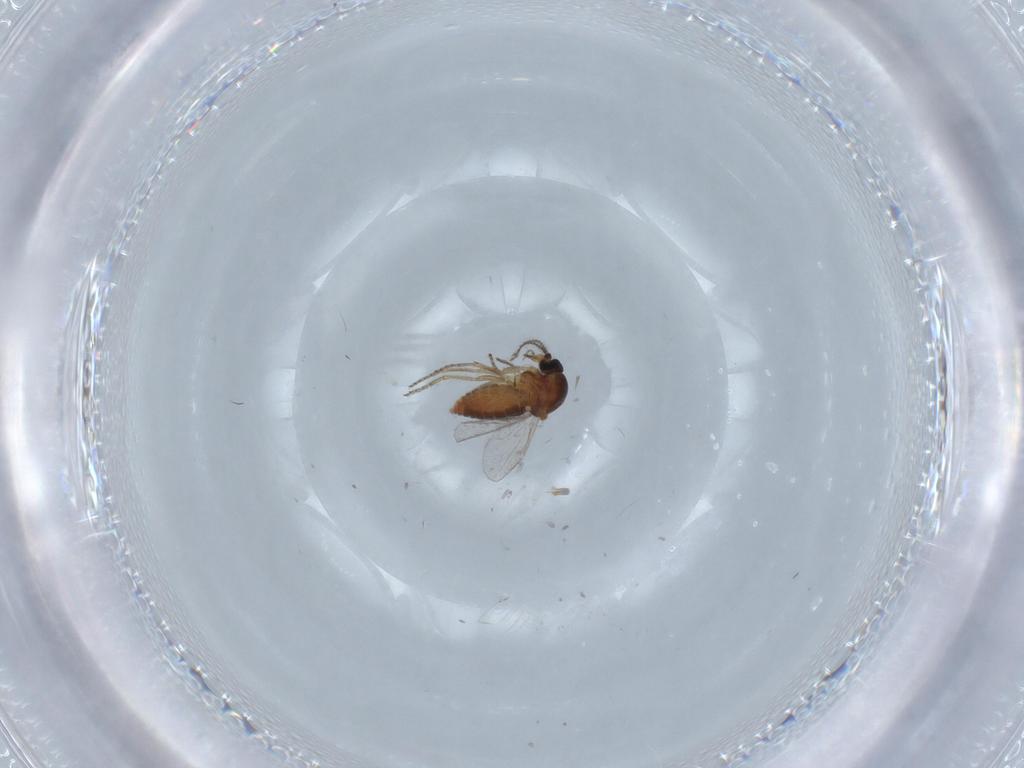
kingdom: Animalia
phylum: Arthropoda
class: Insecta
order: Diptera
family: Ceratopogonidae
